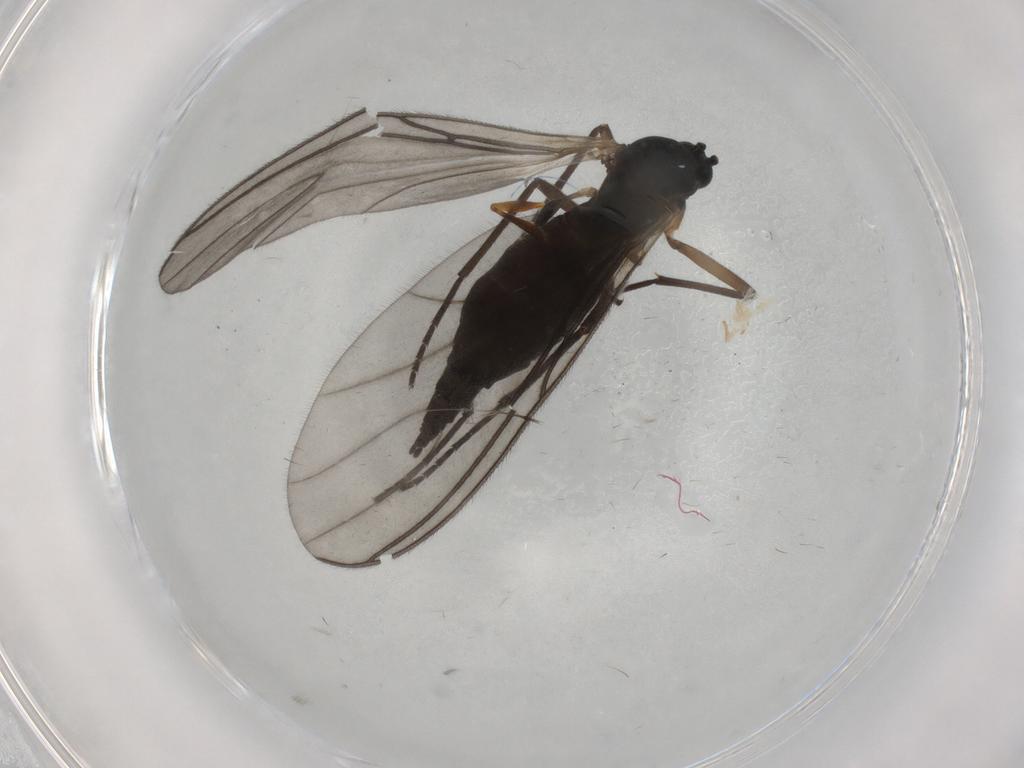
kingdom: Animalia
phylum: Arthropoda
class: Insecta
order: Diptera
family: Sciaridae
